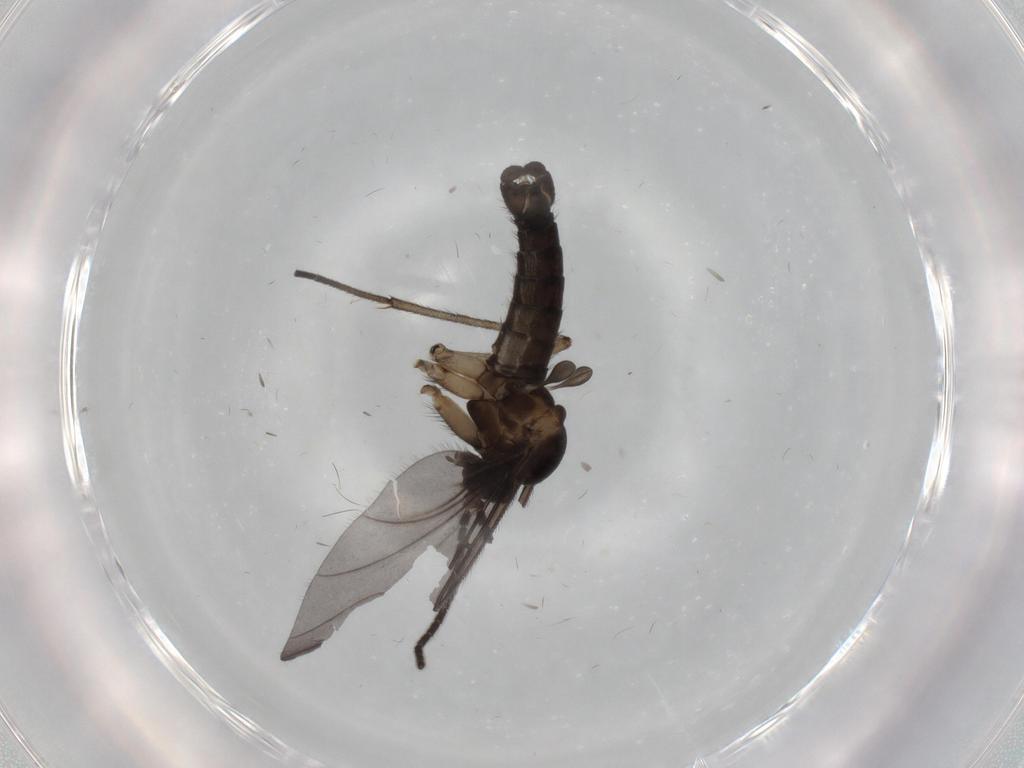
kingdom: Animalia
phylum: Arthropoda
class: Insecta
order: Diptera
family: Sciaridae
